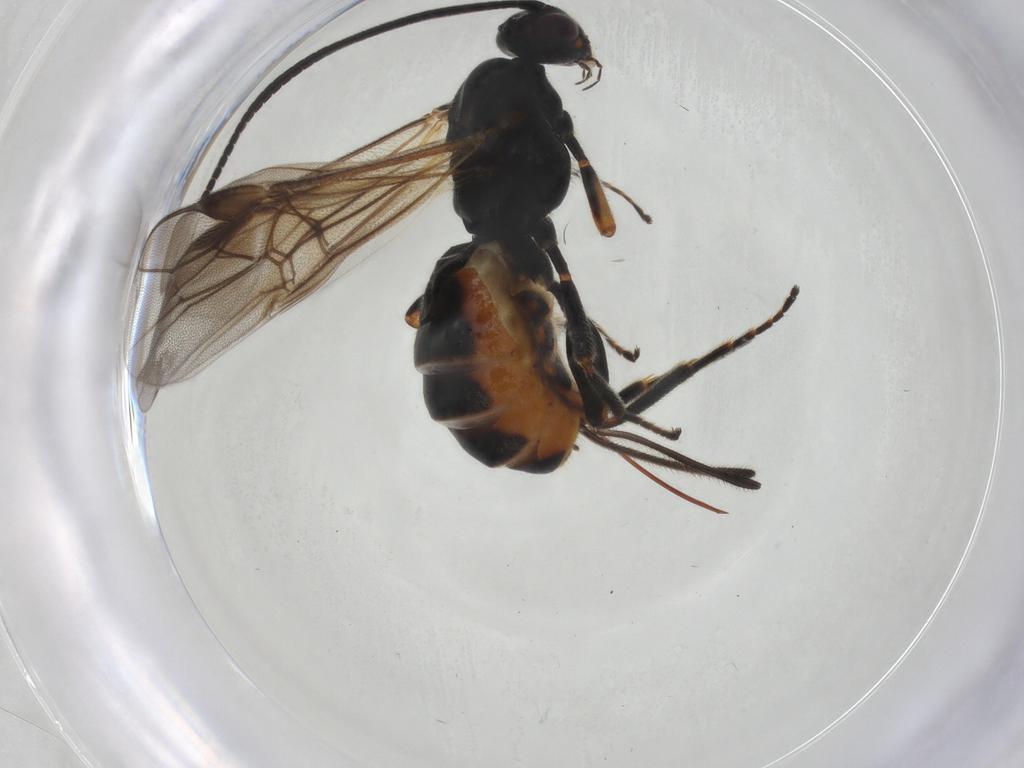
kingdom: Animalia
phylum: Arthropoda
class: Insecta
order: Hymenoptera
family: Braconidae
